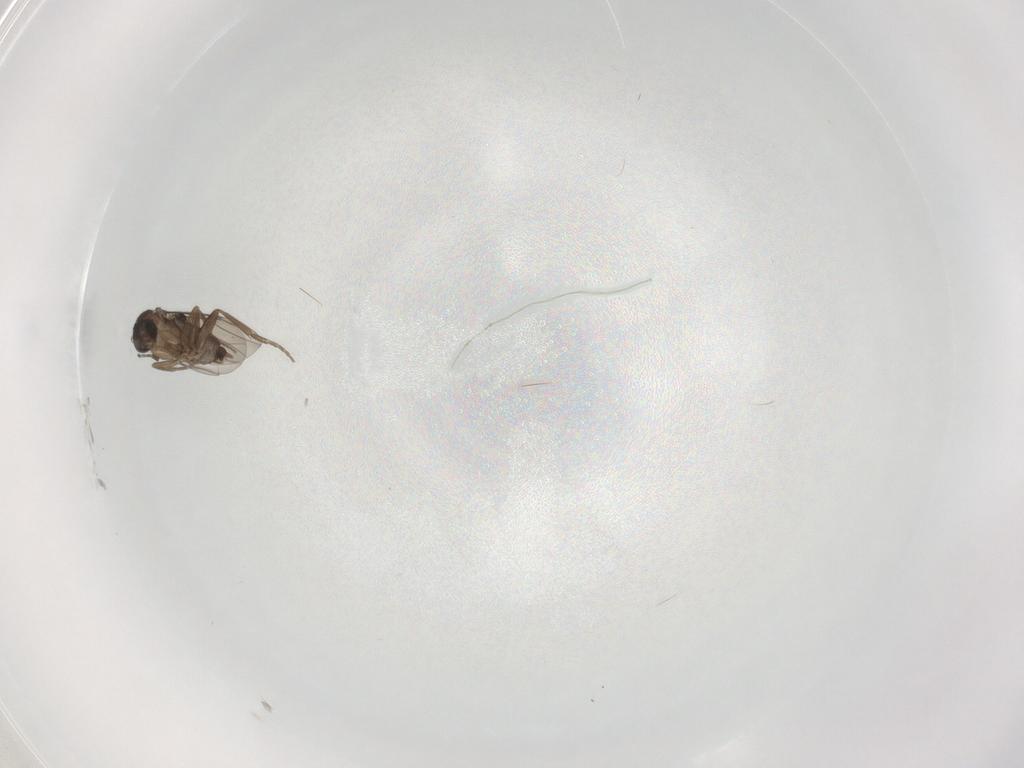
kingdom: Animalia
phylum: Arthropoda
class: Insecta
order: Diptera
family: Phoridae
